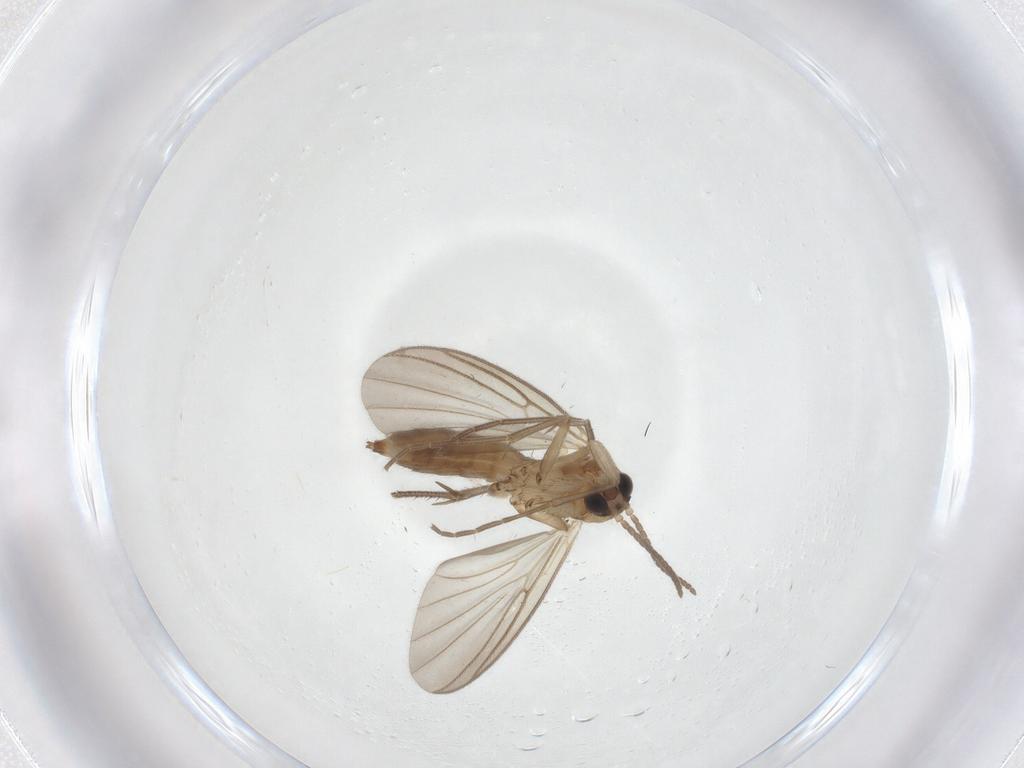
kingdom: Animalia
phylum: Arthropoda
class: Insecta
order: Diptera
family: Mycetophilidae
